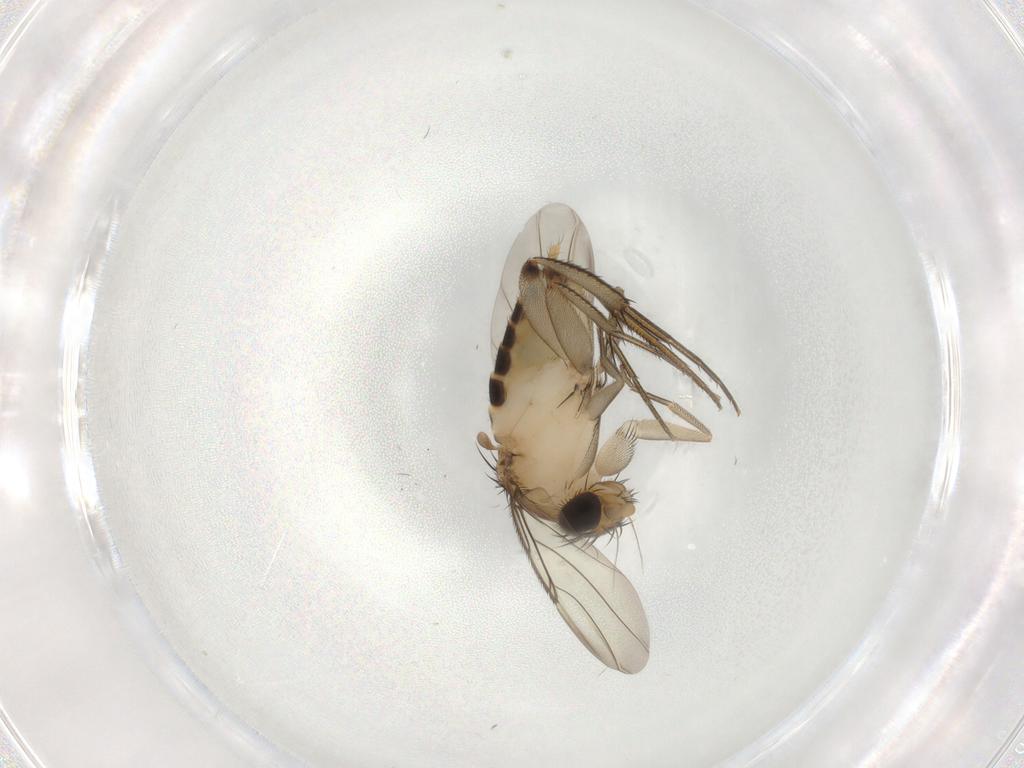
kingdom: Animalia
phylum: Arthropoda
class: Insecta
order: Diptera
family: Phoridae
